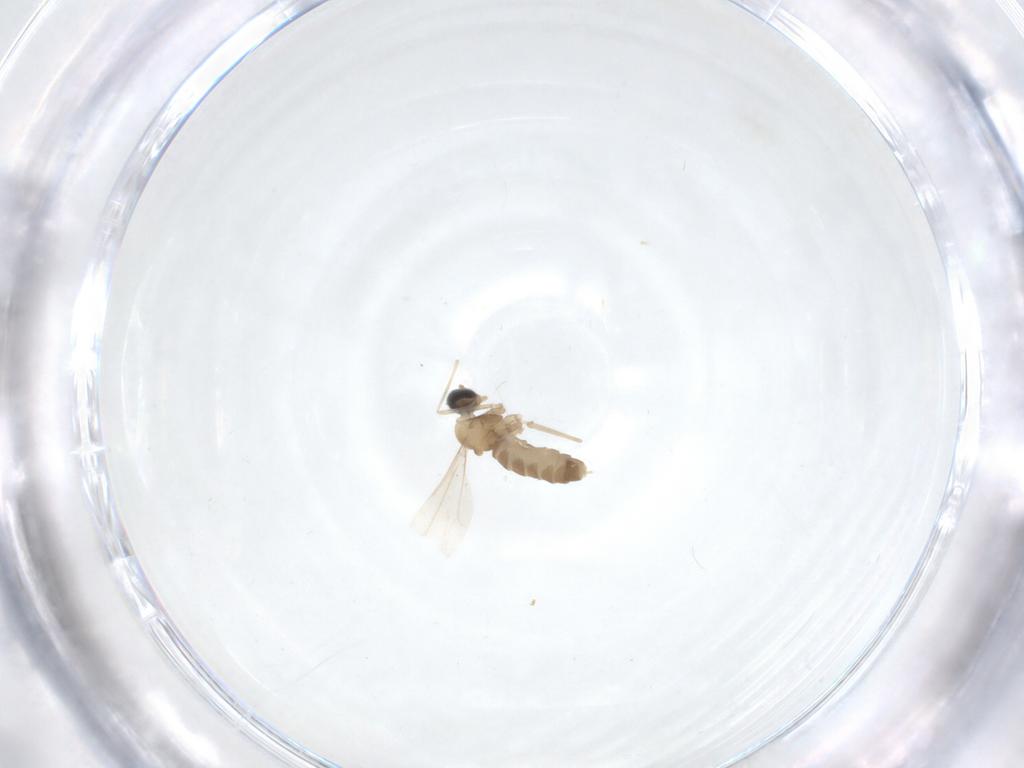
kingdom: Animalia
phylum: Arthropoda
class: Insecta
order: Diptera
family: Cecidomyiidae
